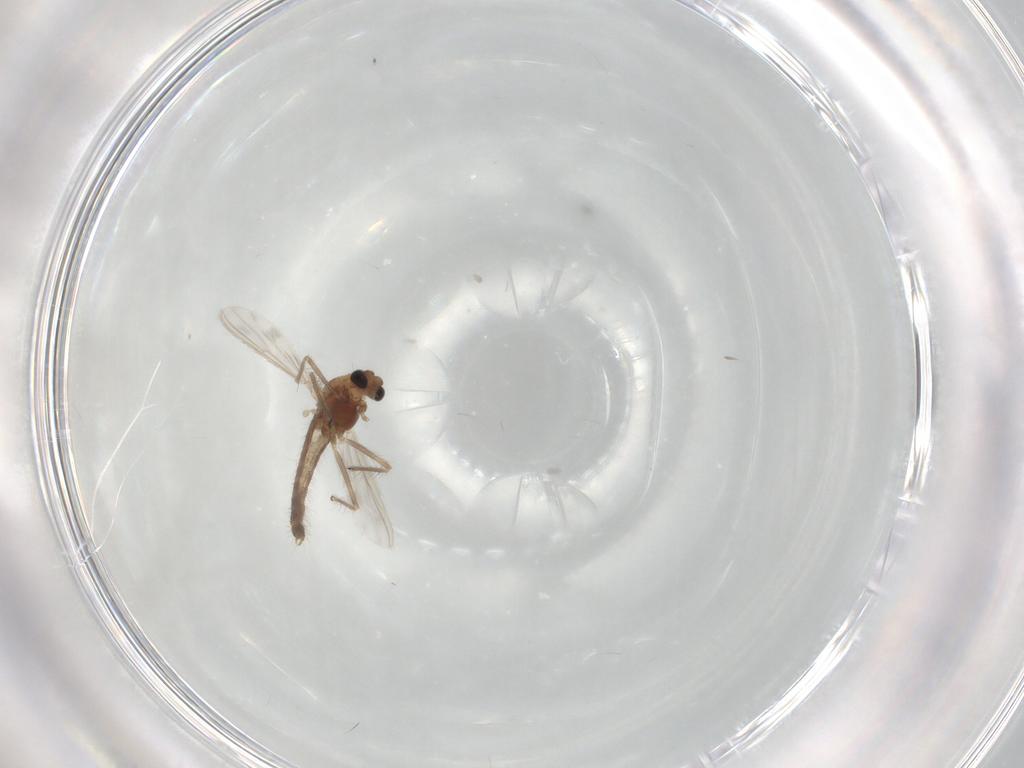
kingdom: Animalia
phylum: Arthropoda
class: Insecta
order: Diptera
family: Chironomidae
